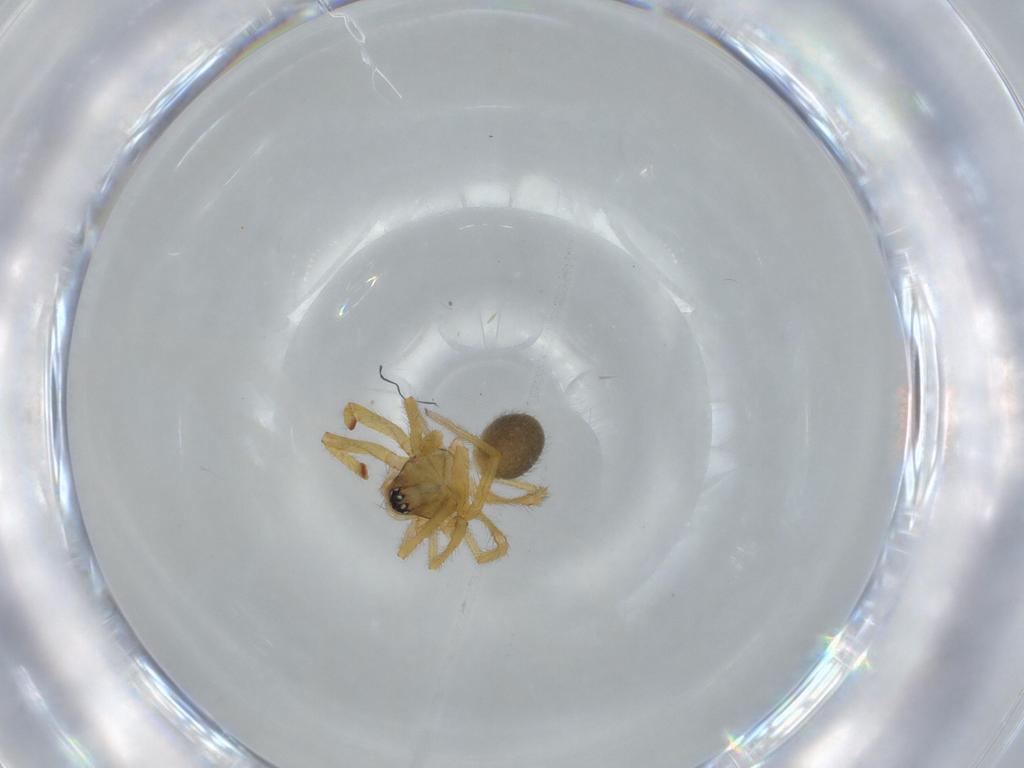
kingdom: Animalia
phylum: Arthropoda
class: Arachnida
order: Araneae
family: Linyphiidae
